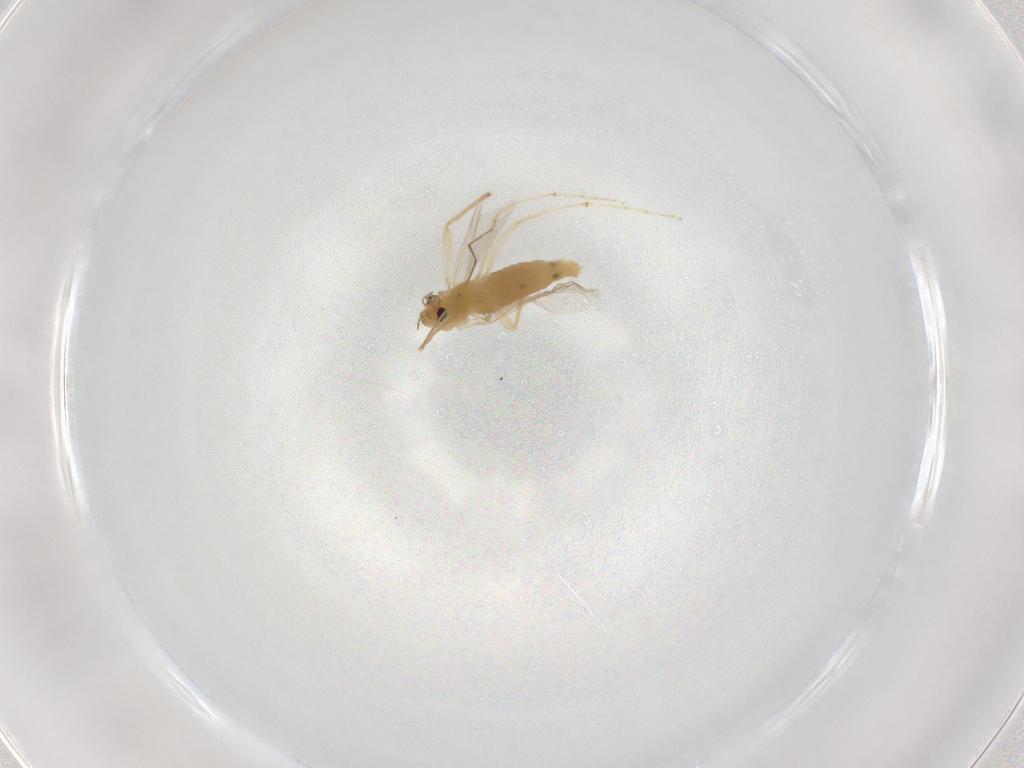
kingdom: Animalia
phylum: Arthropoda
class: Insecta
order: Diptera
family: Chironomidae
